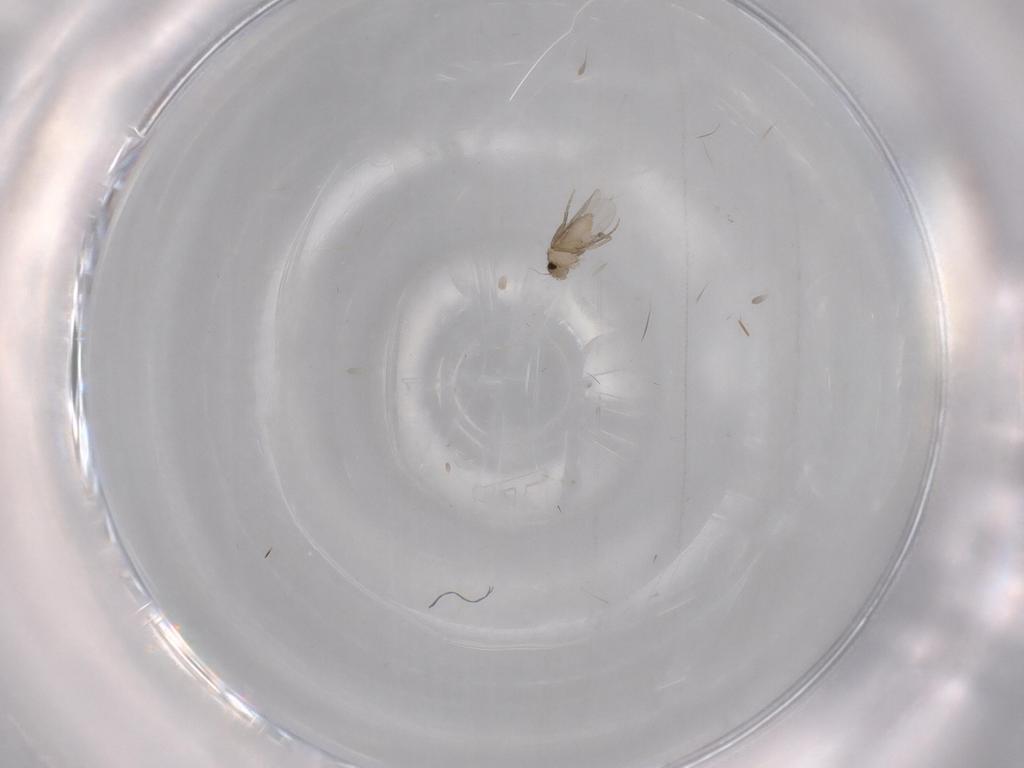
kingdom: Animalia
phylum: Arthropoda
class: Insecta
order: Diptera
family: Phoridae
